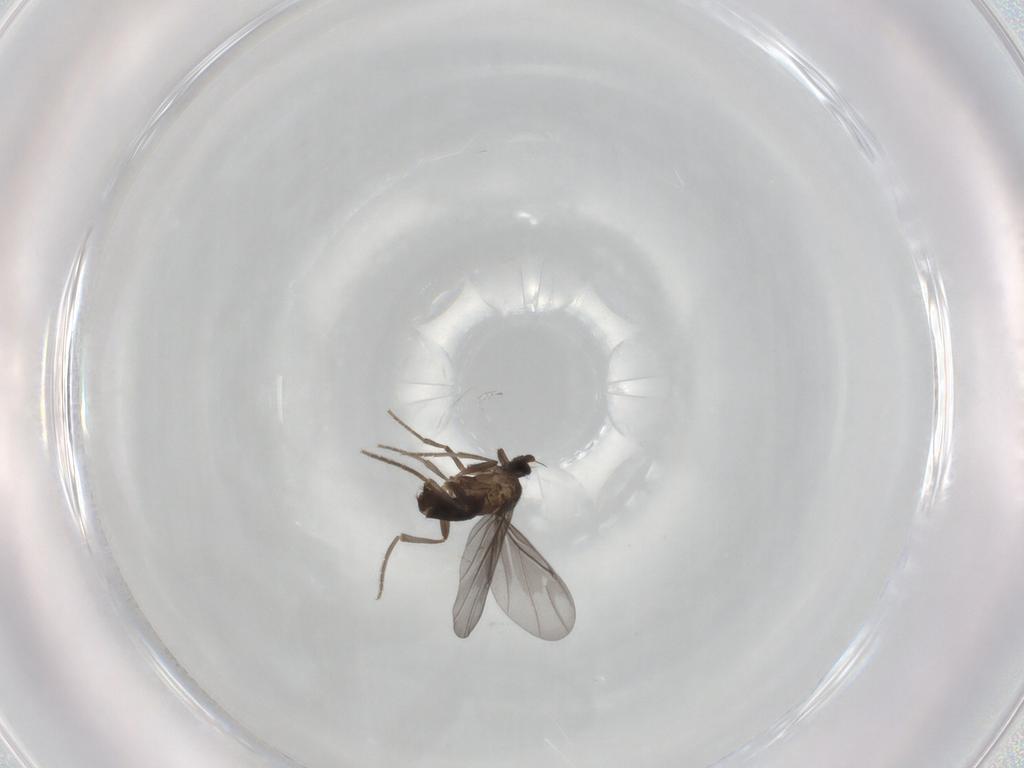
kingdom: Animalia
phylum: Arthropoda
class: Insecta
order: Diptera
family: Phoridae
